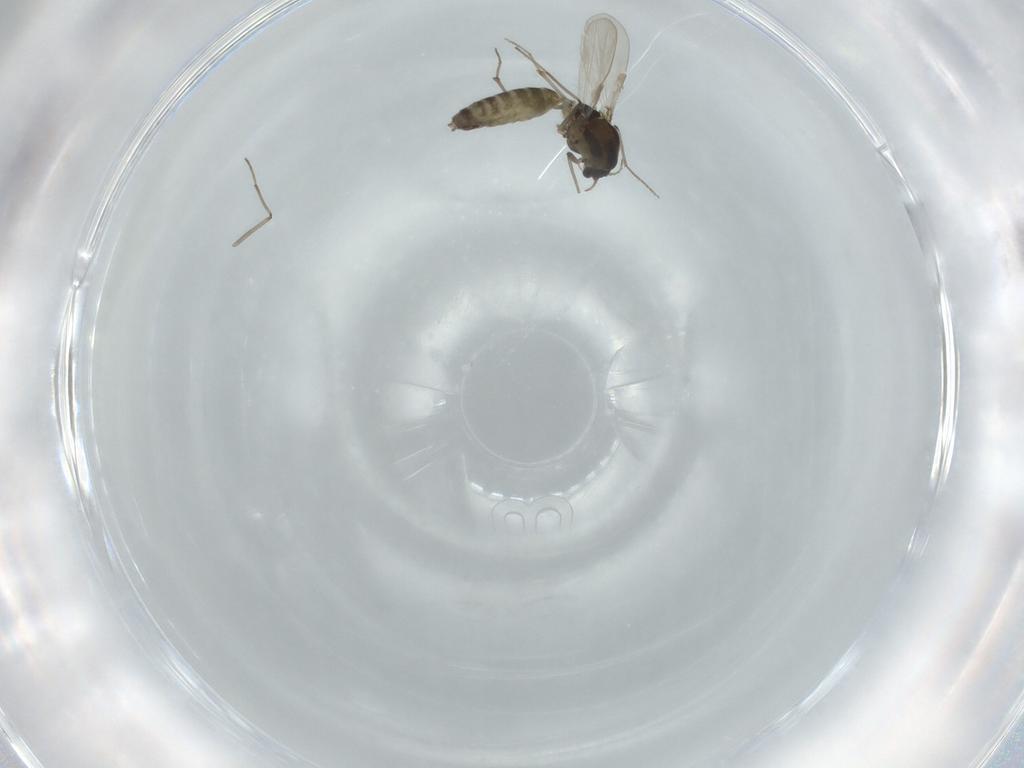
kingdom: Animalia
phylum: Arthropoda
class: Insecta
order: Diptera
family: Chironomidae
